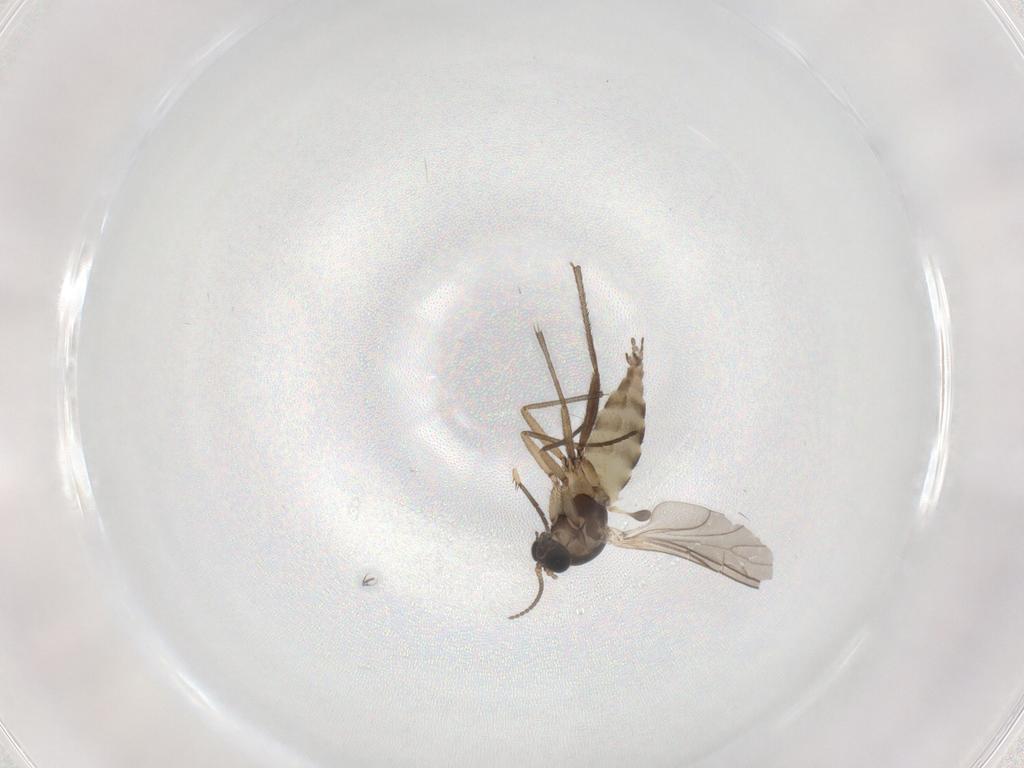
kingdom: Animalia
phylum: Arthropoda
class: Insecta
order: Diptera
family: Sciaridae
